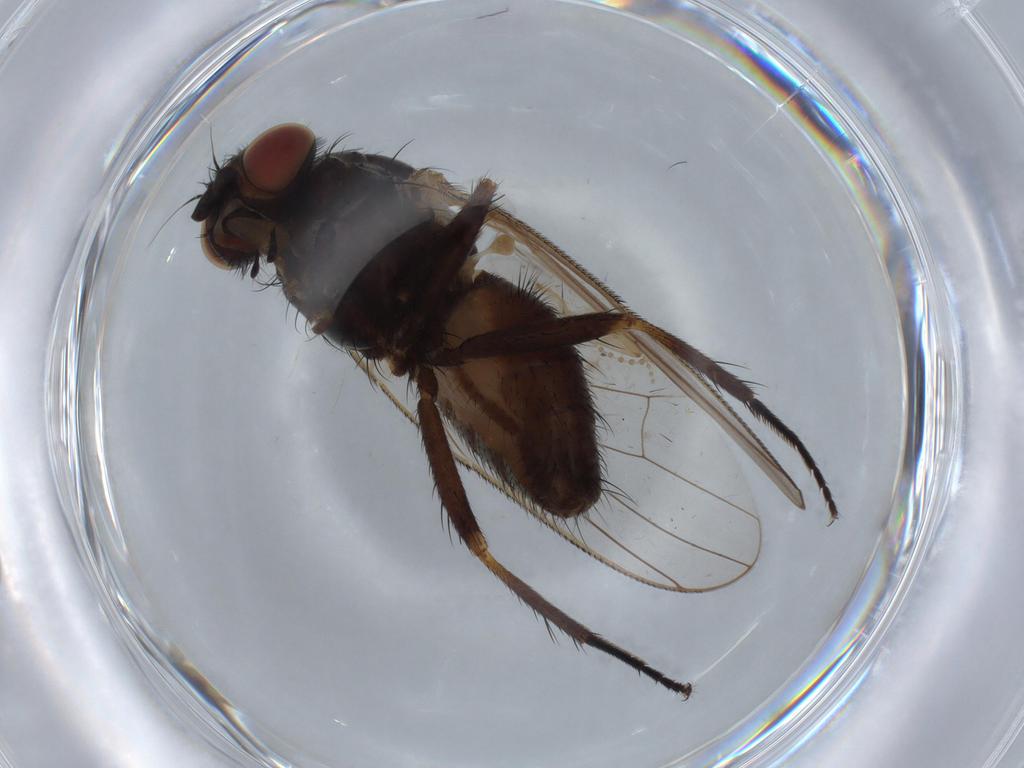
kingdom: Animalia
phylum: Arthropoda
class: Insecta
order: Diptera
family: Fannia
